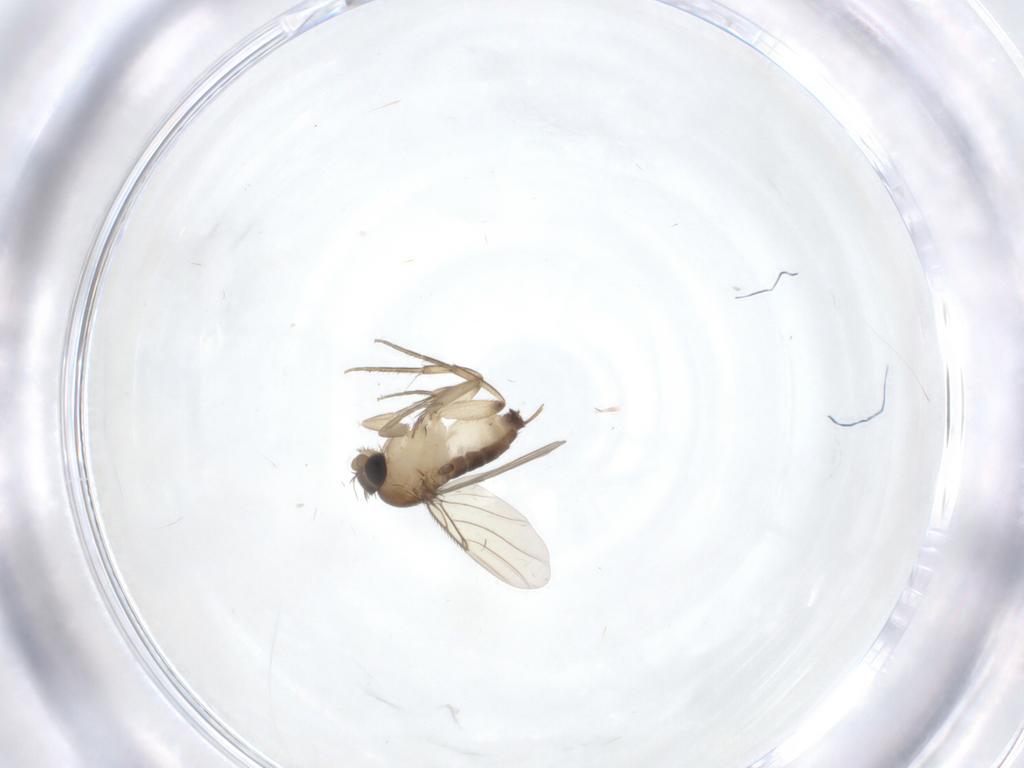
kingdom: Animalia
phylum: Arthropoda
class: Insecta
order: Diptera
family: Phoridae
